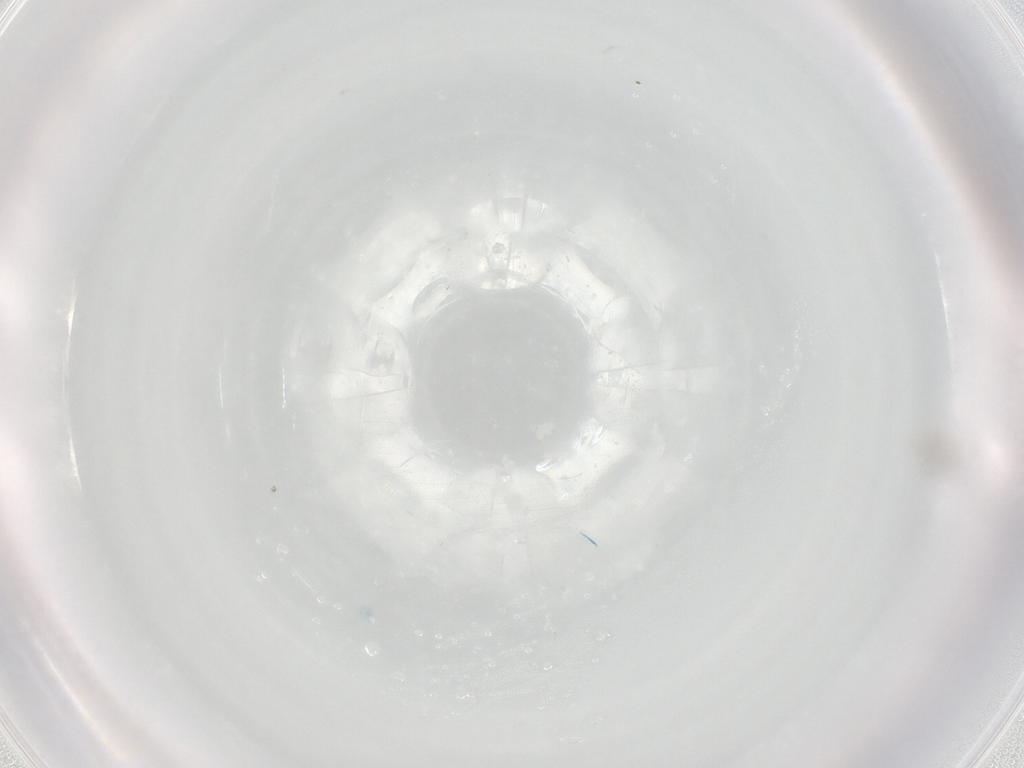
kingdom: Animalia
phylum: Arthropoda
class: Collembola
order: Entomobryomorpha
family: Entomobryidae
